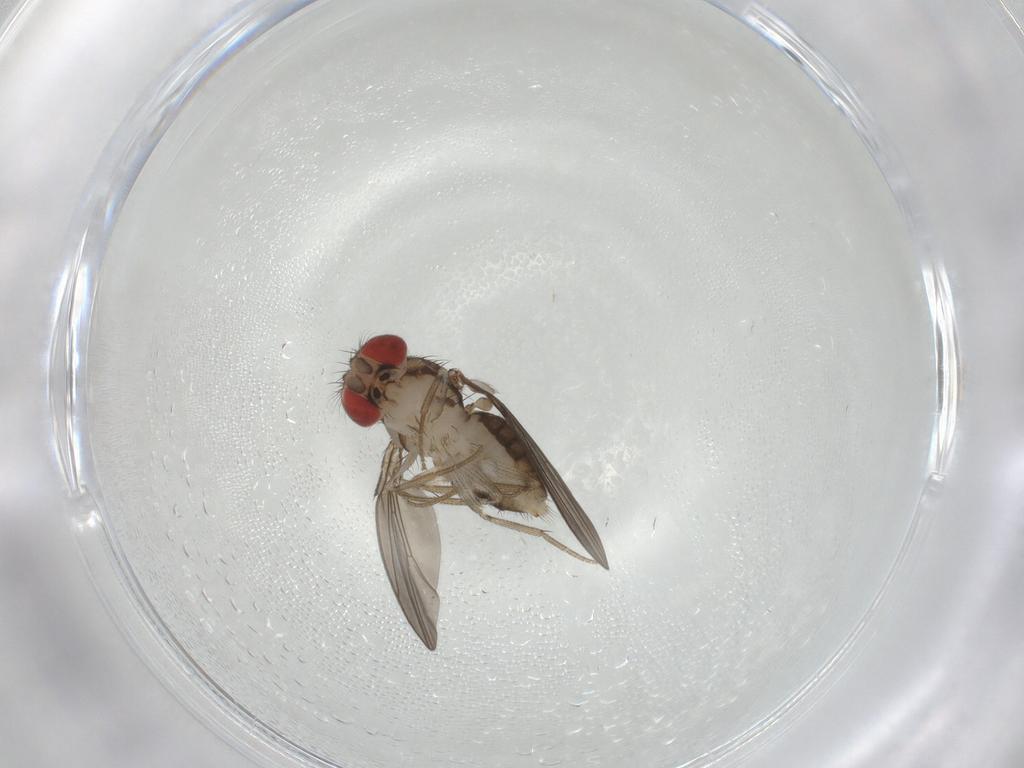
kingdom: Animalia
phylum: Arthropoda
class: Insecta
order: Diptera
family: Drosophilidae
